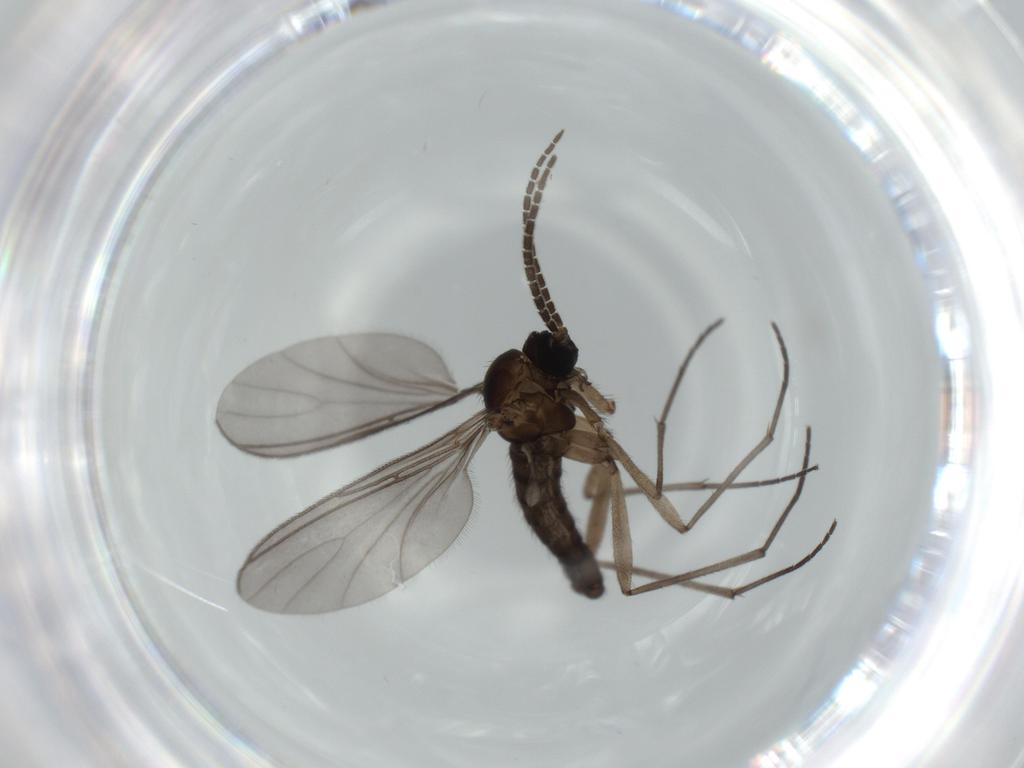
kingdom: Animalia
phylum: Arthropoda
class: Insecta
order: Diptera
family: Sciaridae
